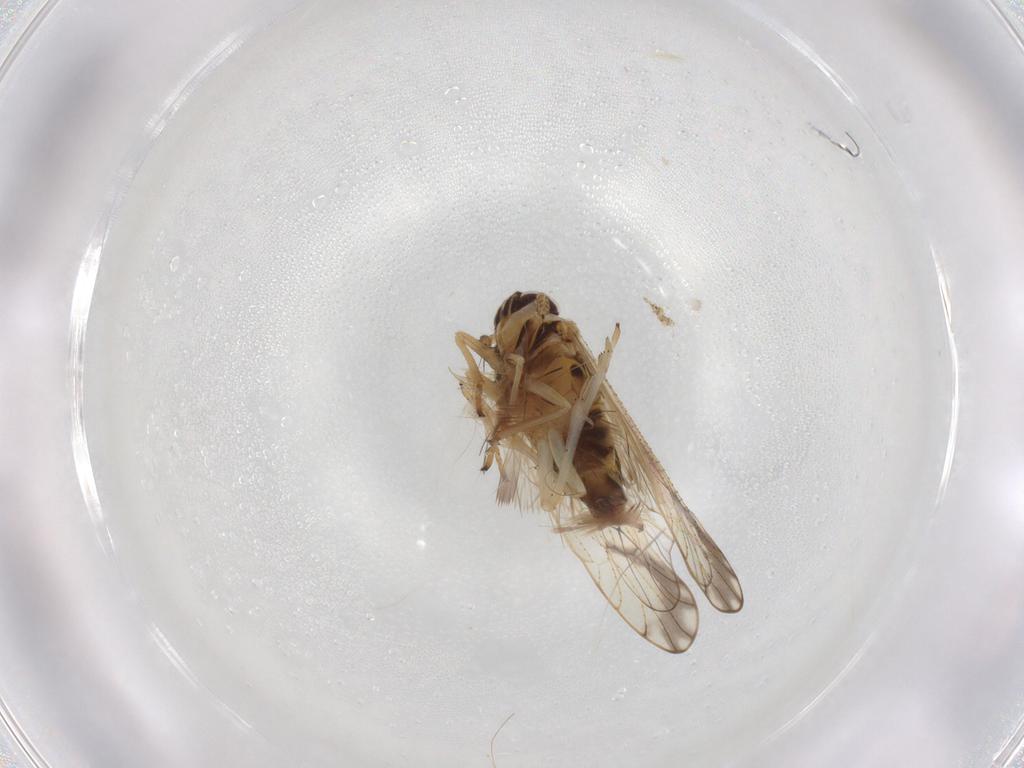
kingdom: Animalia
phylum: Arthropoda
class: Insecta
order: Hemiptera
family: Delphacidae
